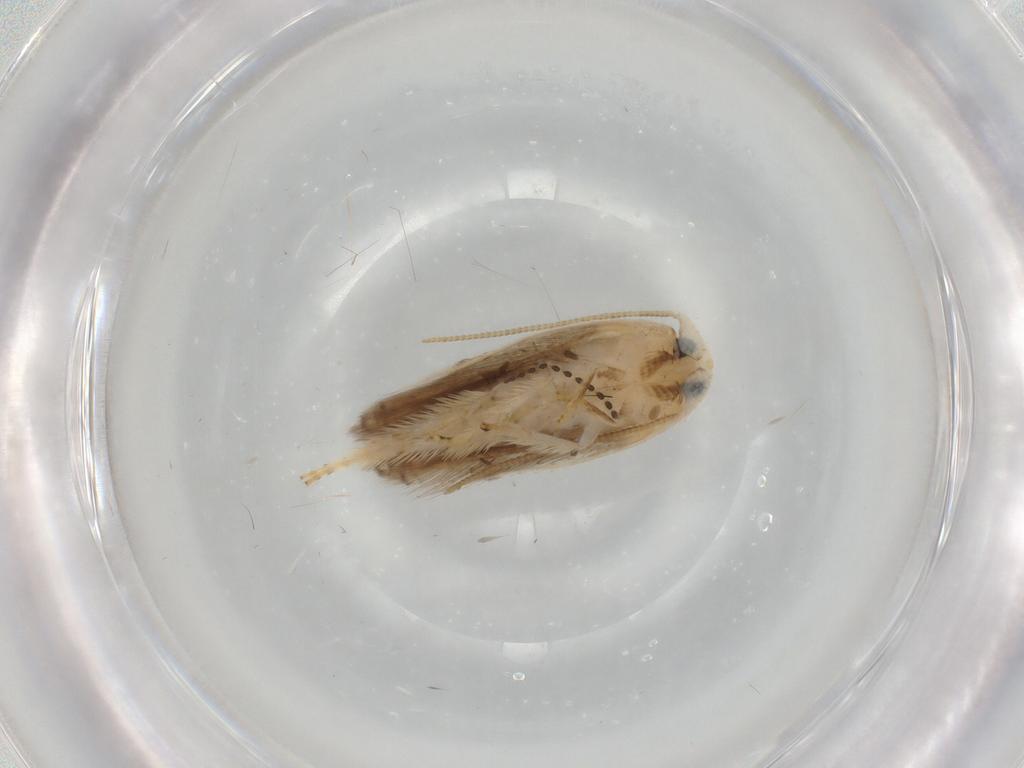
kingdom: Animalia
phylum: Arthropoda
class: Insecta
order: Lepidoptera
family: Opostegidae
